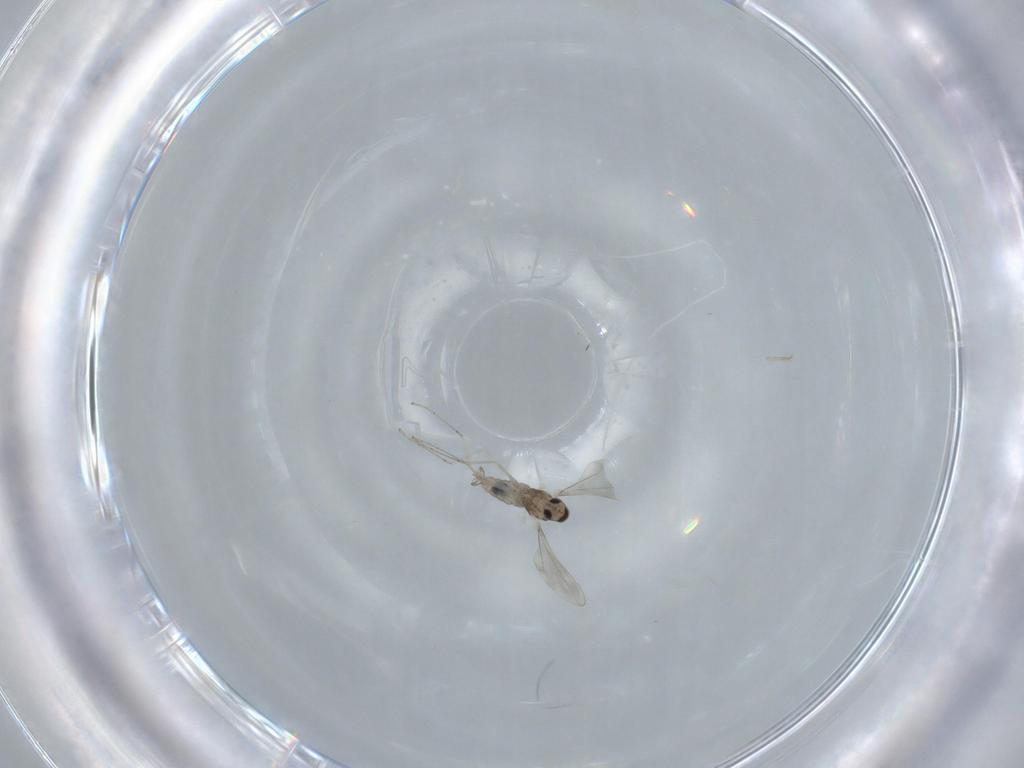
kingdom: Animalia
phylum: Arthropoda
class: Insecta
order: Diptera
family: Cecidomyiidae
